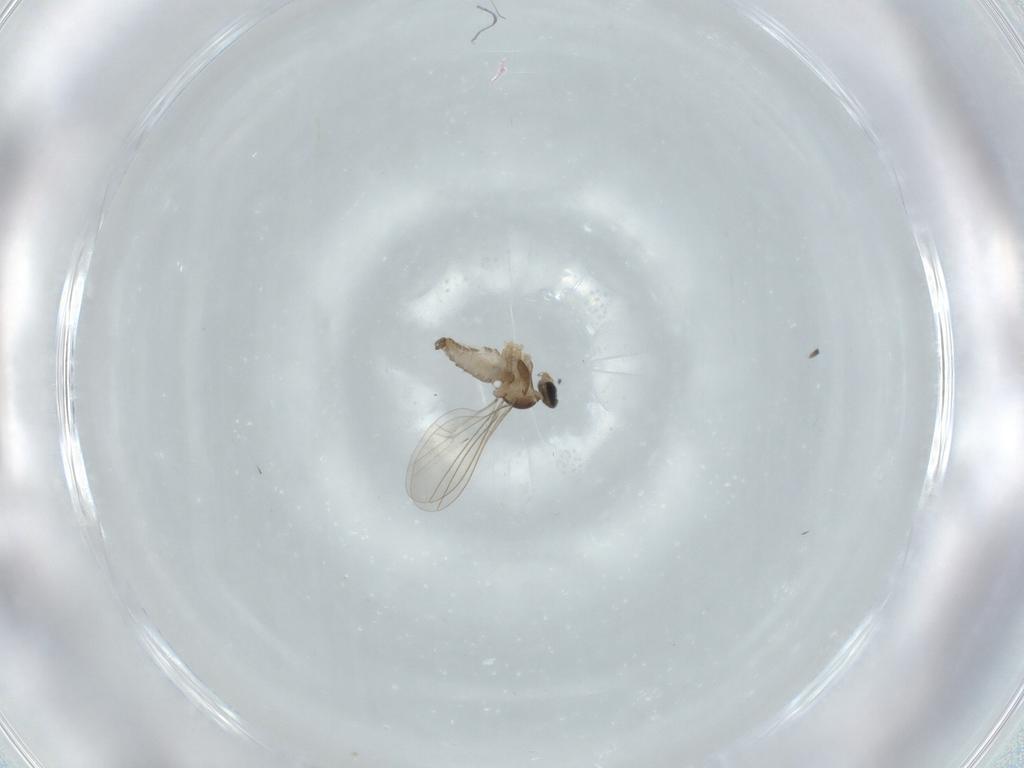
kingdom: Animalia
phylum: Arthropoda
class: Insecta
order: Diptera
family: Cecidomyiidae
